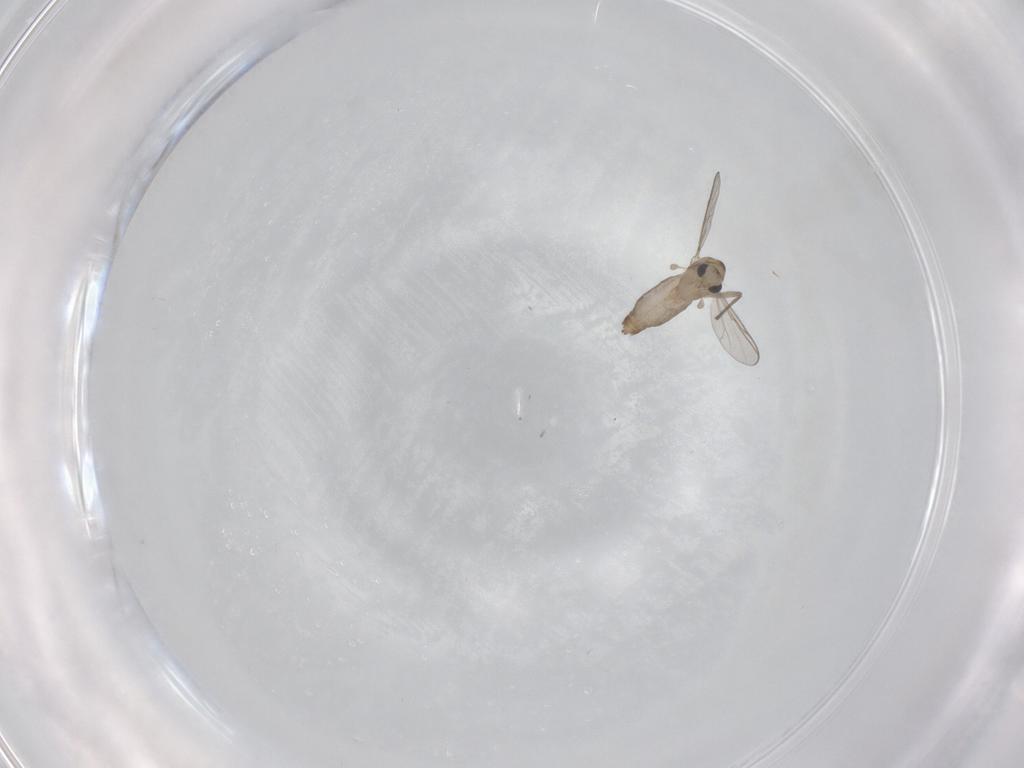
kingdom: Animalia
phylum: Arthropoda
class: Insecta
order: Diptera
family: Chironomidae
